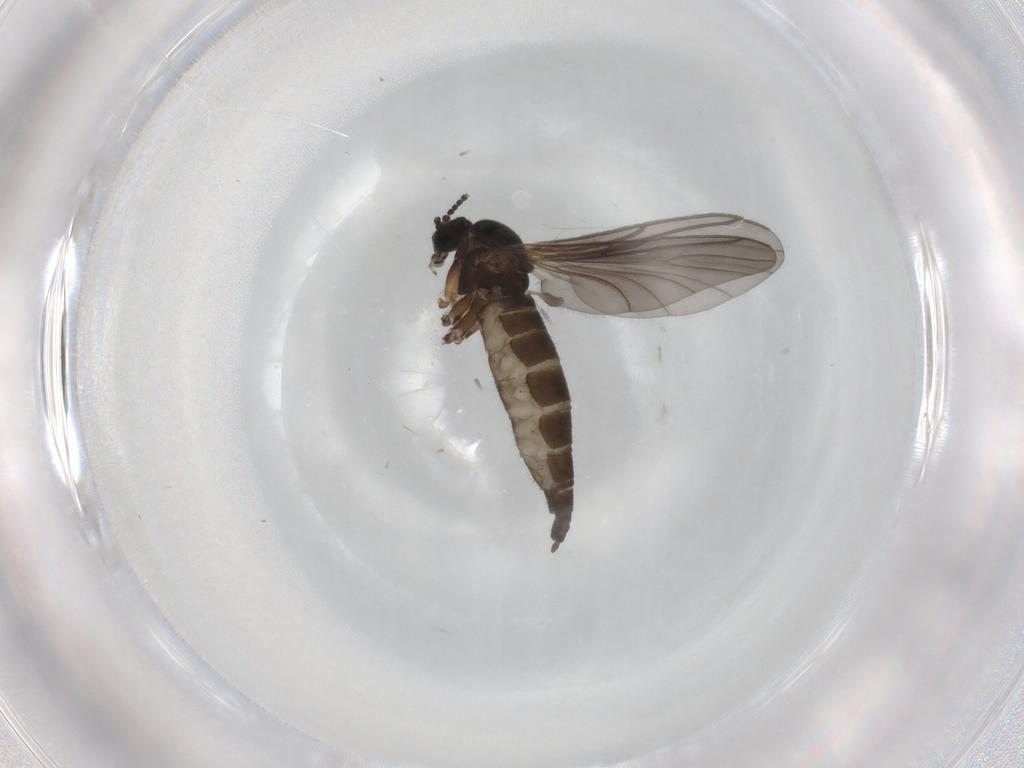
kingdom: Animalia
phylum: Arthropoda
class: Insecta
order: Diptera
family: Sciaridae
